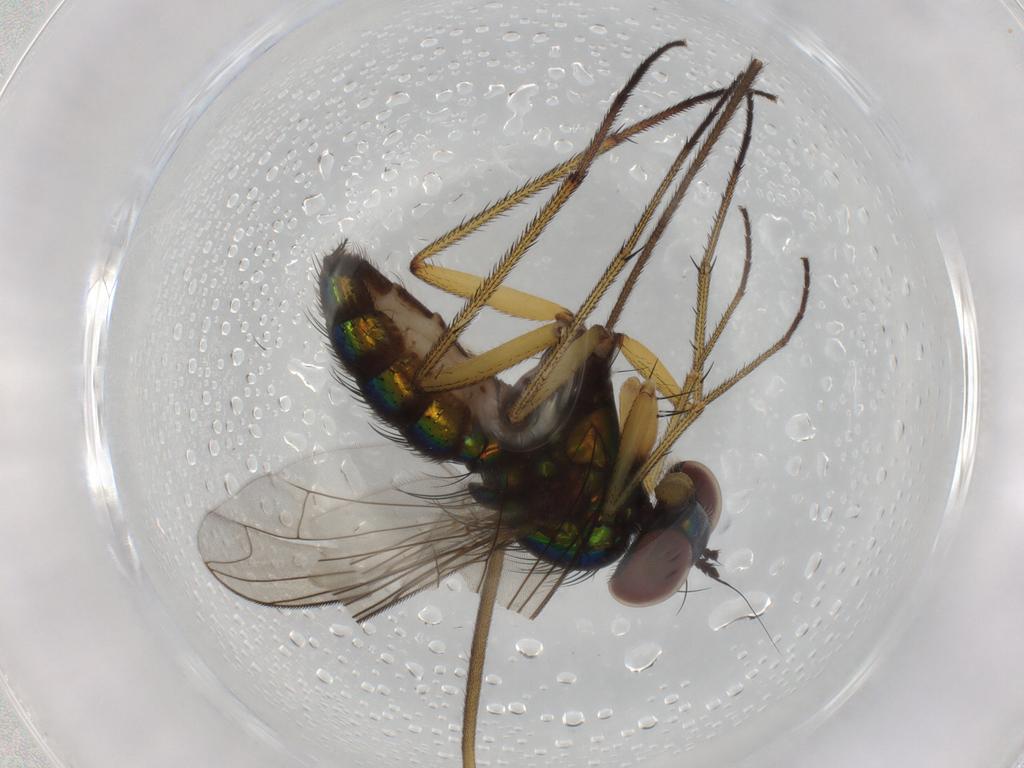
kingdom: Animalia
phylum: Arthropoda
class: Insecta
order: Diptera
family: Dolichopodidae
